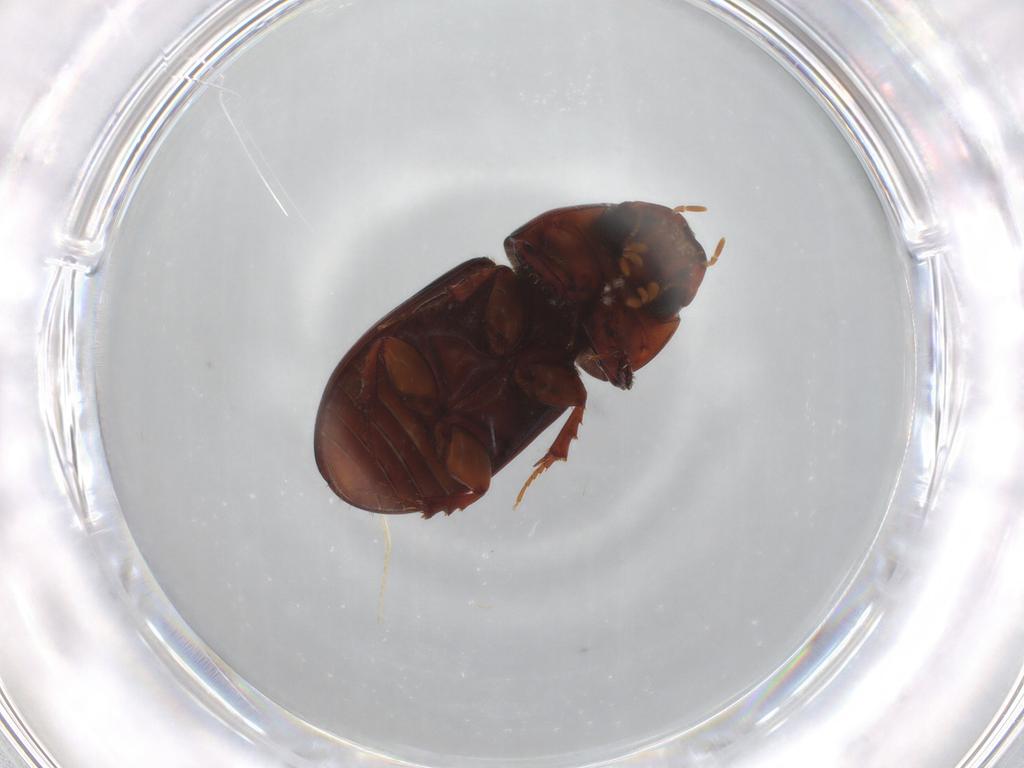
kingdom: Animalia
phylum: Arthropoda
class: Insecta
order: Coleoptera
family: Scarabaeidae
